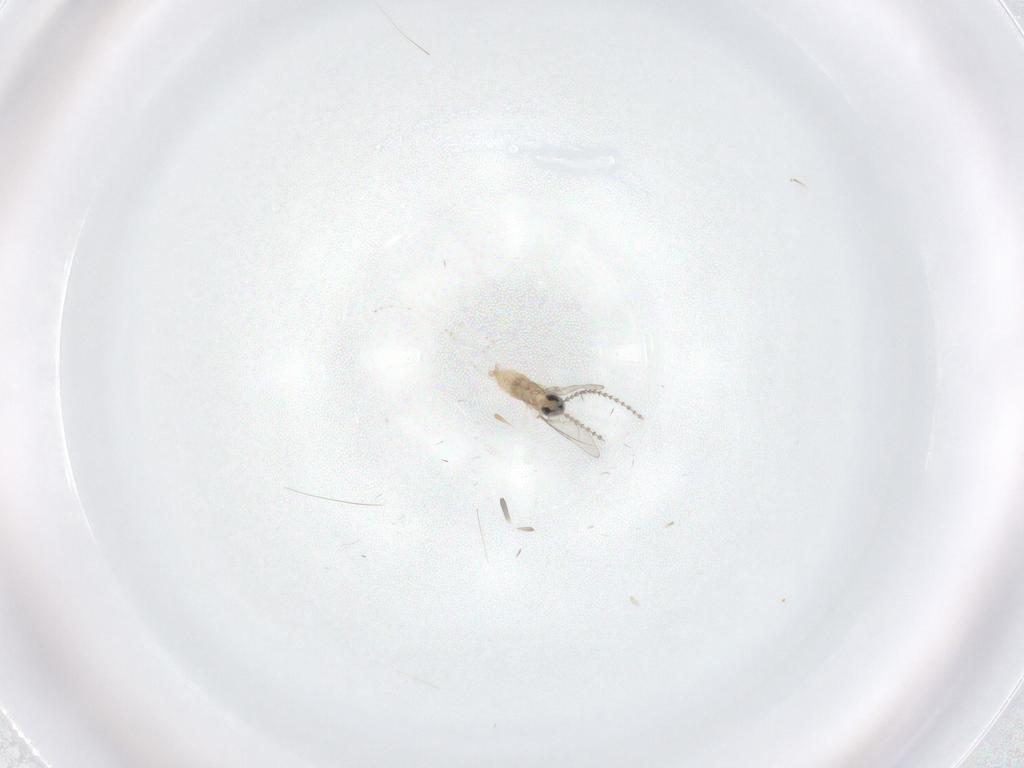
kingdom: Animalia
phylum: Arthropoda
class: Insecta
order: Diptera
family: Cecidomyiidae
